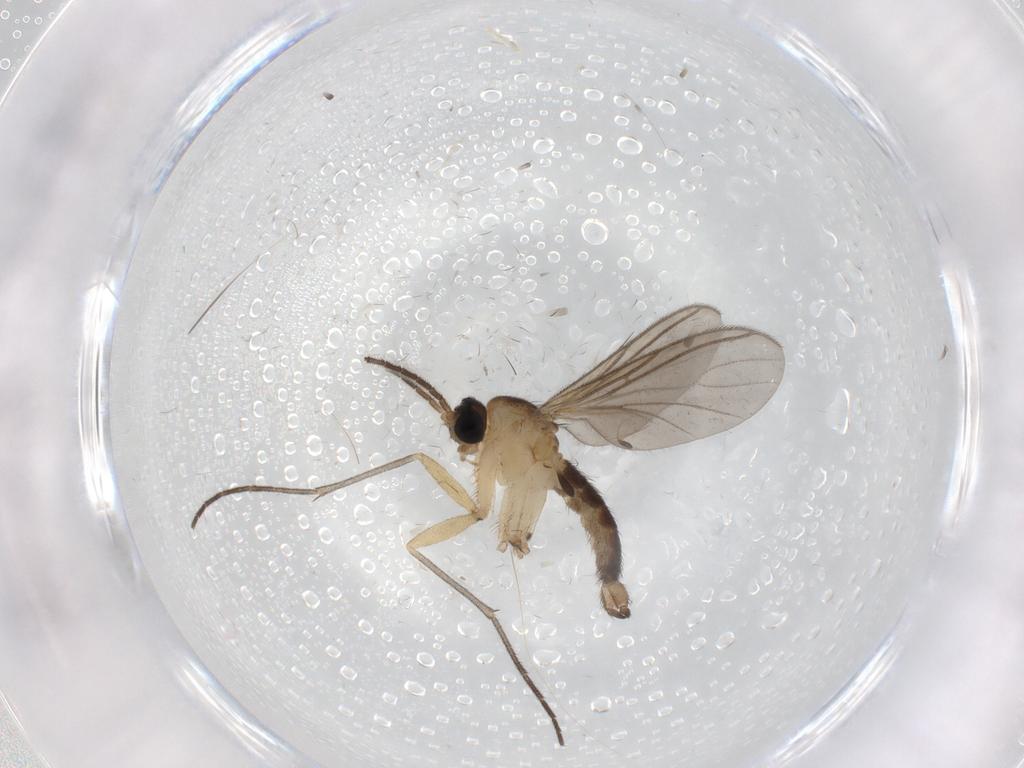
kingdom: Animalia
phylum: Arthropoda
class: Insecta
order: Diptera
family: Sciaridae
